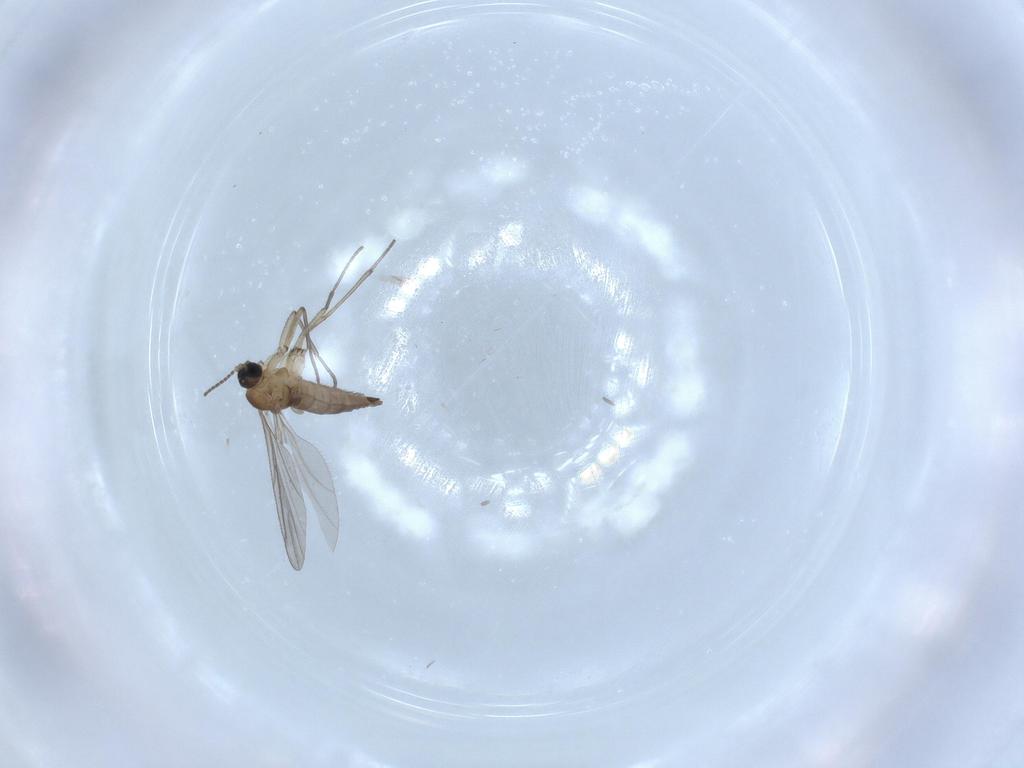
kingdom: Animalia
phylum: Arthropoda
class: Insecta
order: Diptera
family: Sciaridae
